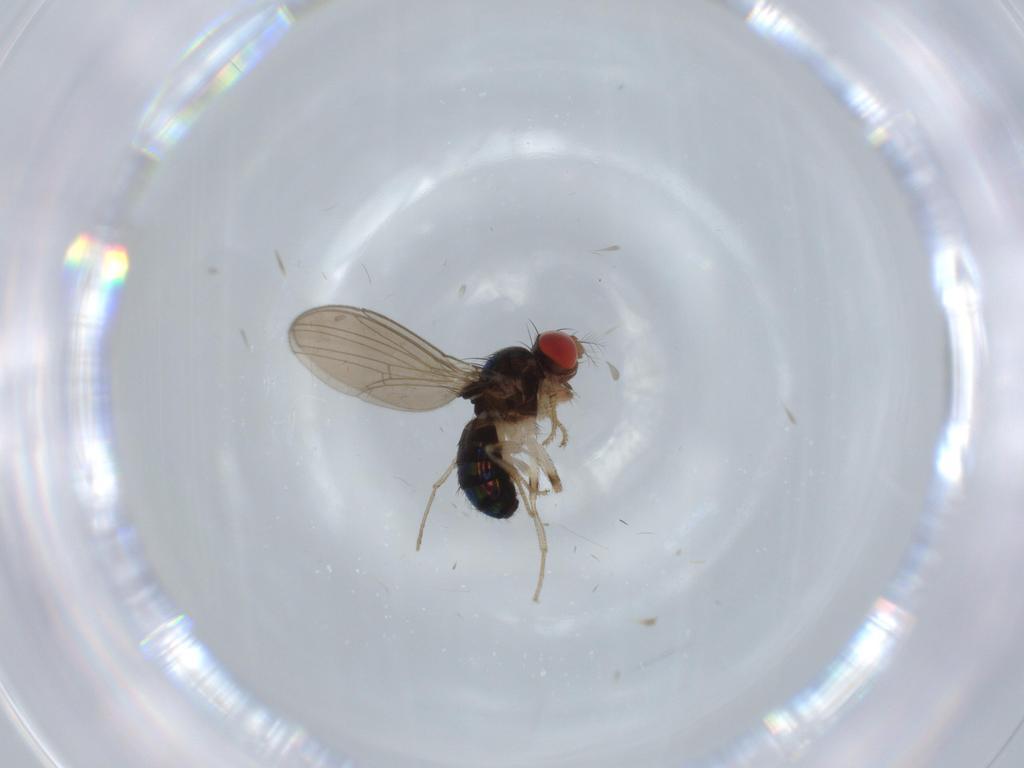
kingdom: Animalia
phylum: Arthropoda
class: Insecta
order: Diptera
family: Drosophilidae
